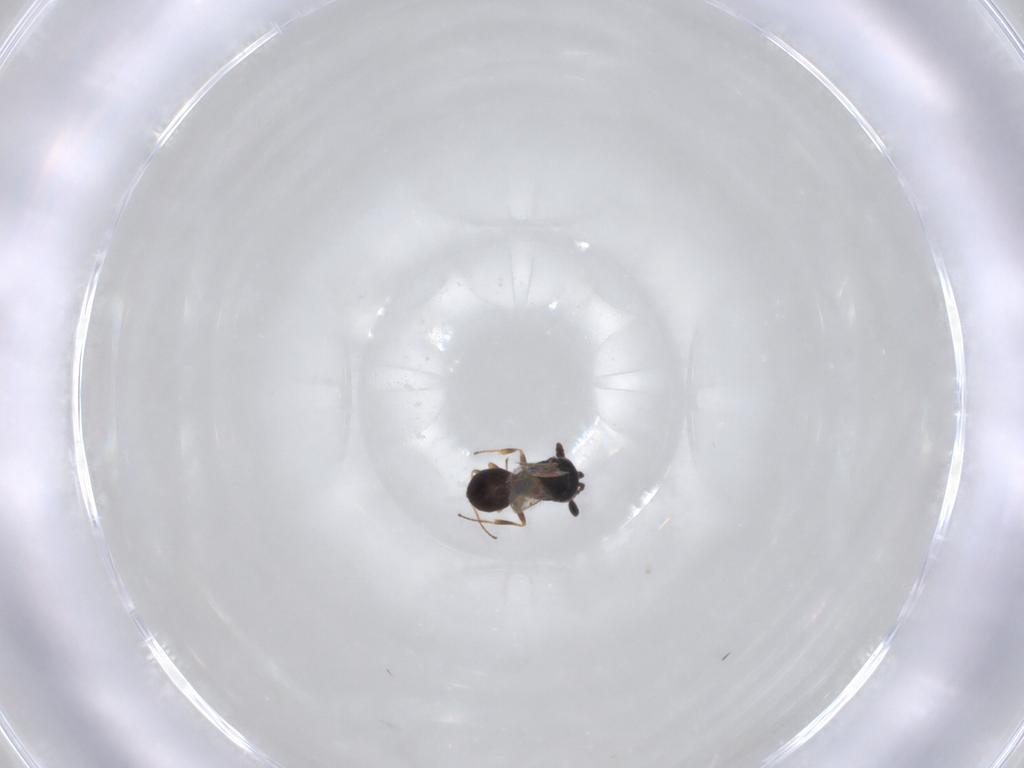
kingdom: Animalia
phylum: Arthropoda
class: Insecta
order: Hymenoptera
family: Scelionidae
